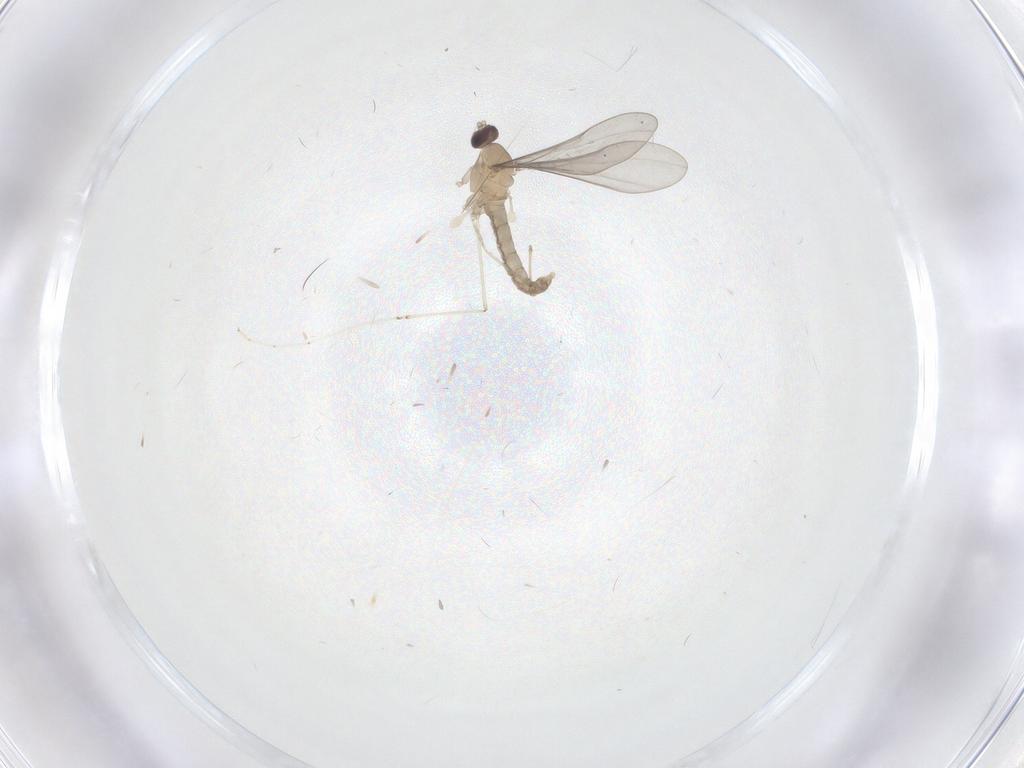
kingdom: Animalia
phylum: Arthropoda
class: Insecta
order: Diptera
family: Cecidomyiidae
